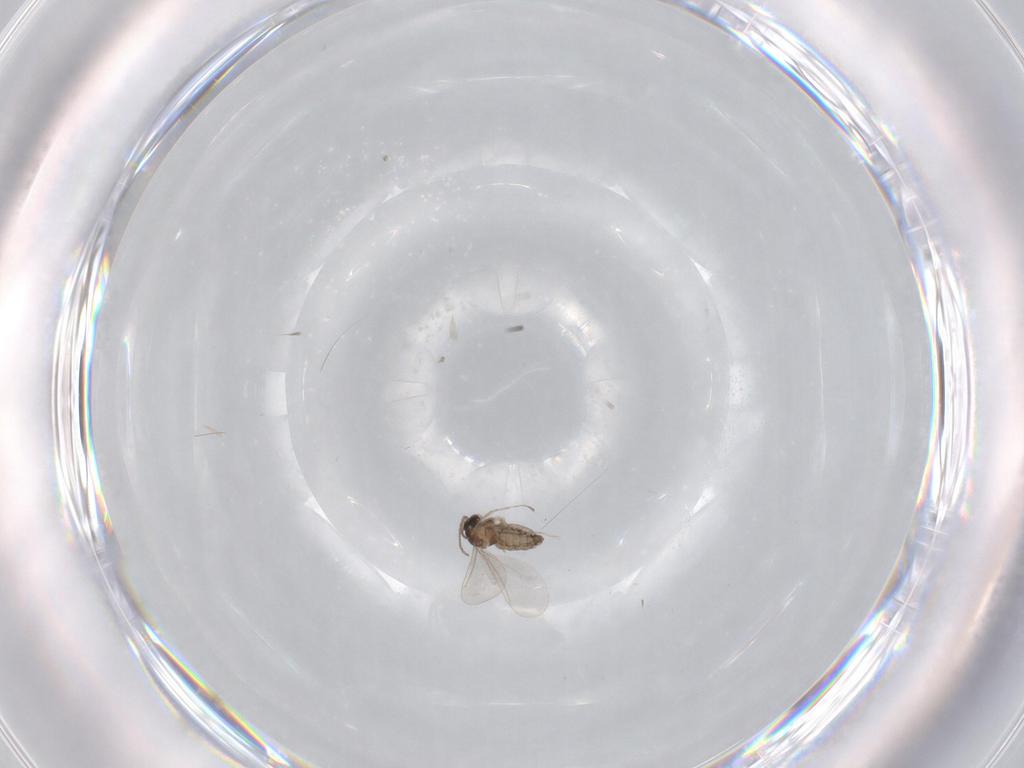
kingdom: Animalia
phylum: Arthropoda
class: Insecta
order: Diptera
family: Cecidomyiidae
